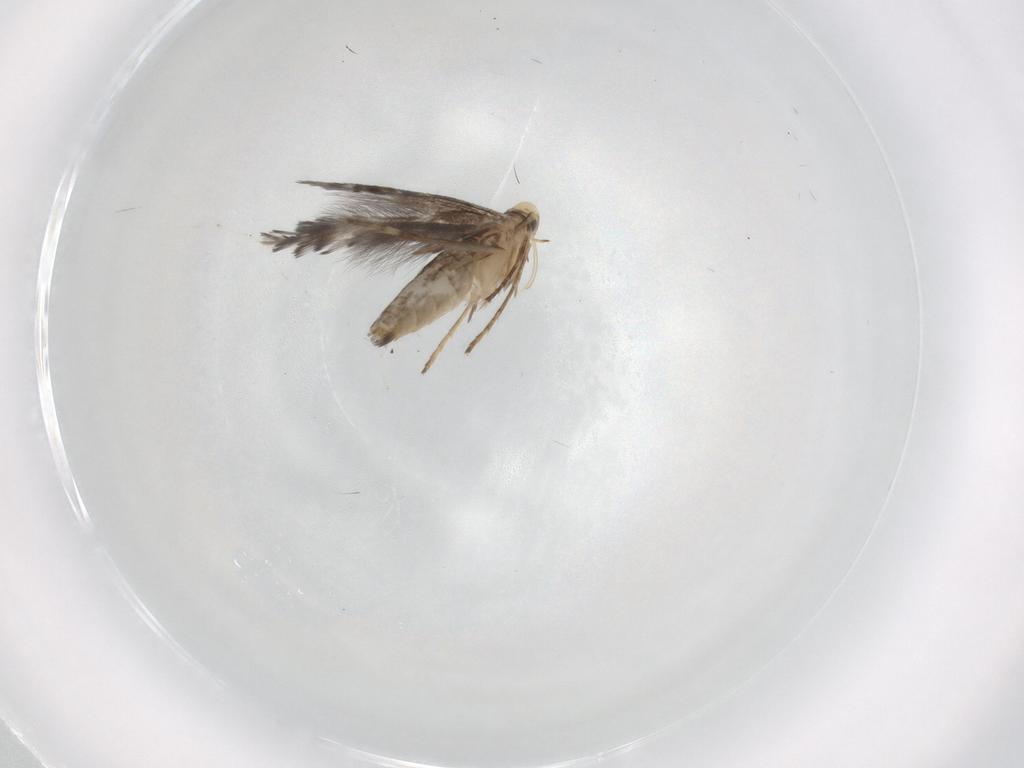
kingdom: Animalia
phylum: Arthropoda
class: Insecta
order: Lepidoptera
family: Gracillariidae
